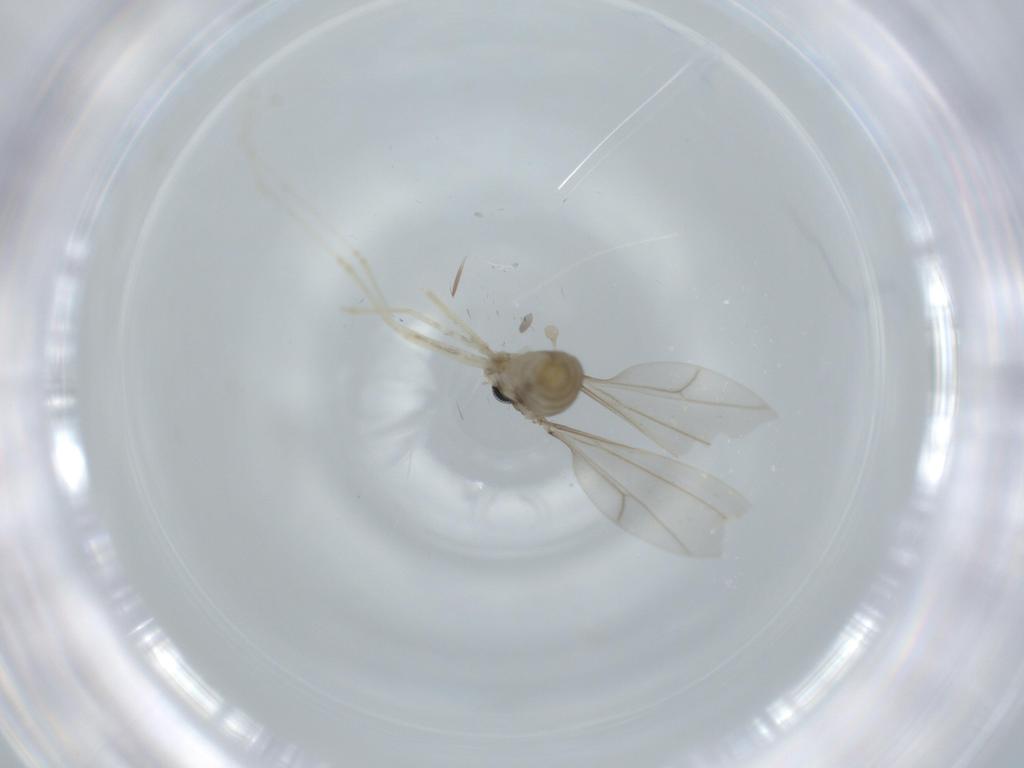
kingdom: Animalia
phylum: Arthropoda
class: Insecta
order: Diptera
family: Cecidomyiidae
